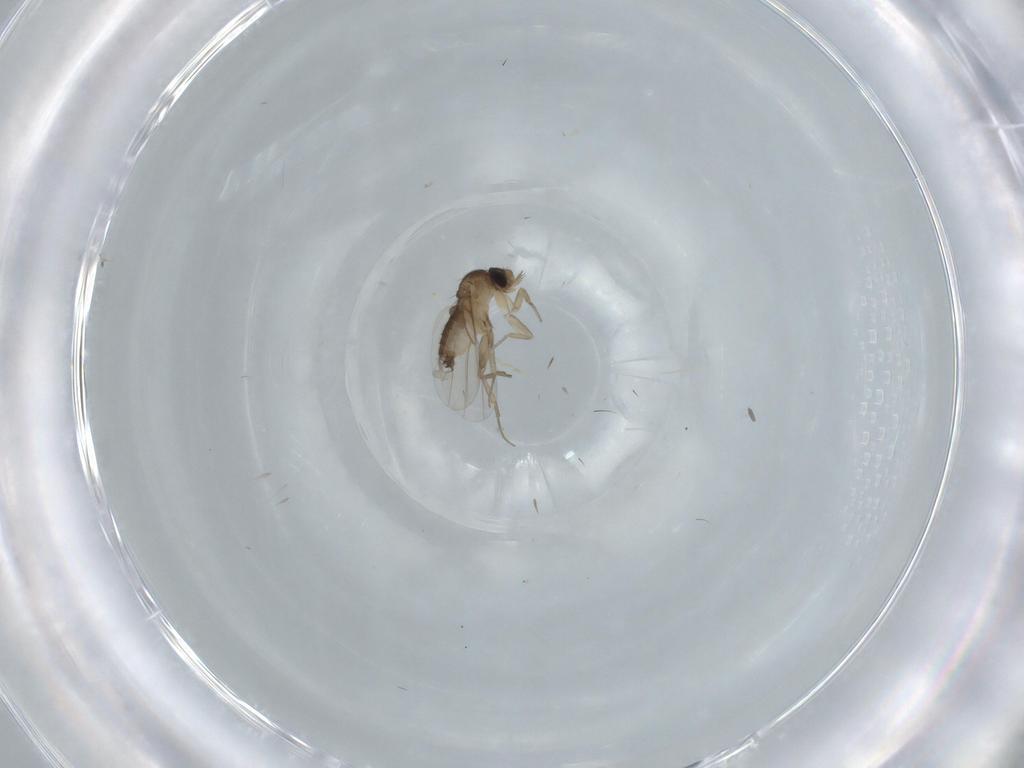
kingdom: Animalia
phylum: Arthropoda
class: Insecta
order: Diptera
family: Phoridae
